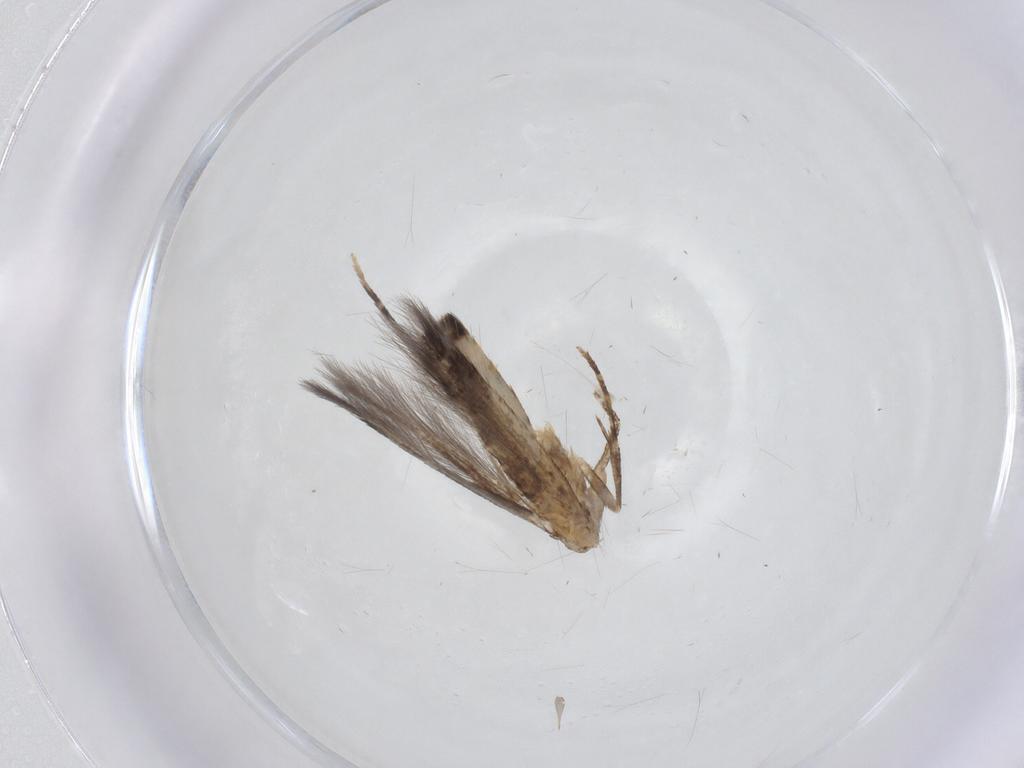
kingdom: Animalia
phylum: Arthropoda
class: Insecta
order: Lepidoptera
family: Cosmopterigidae
